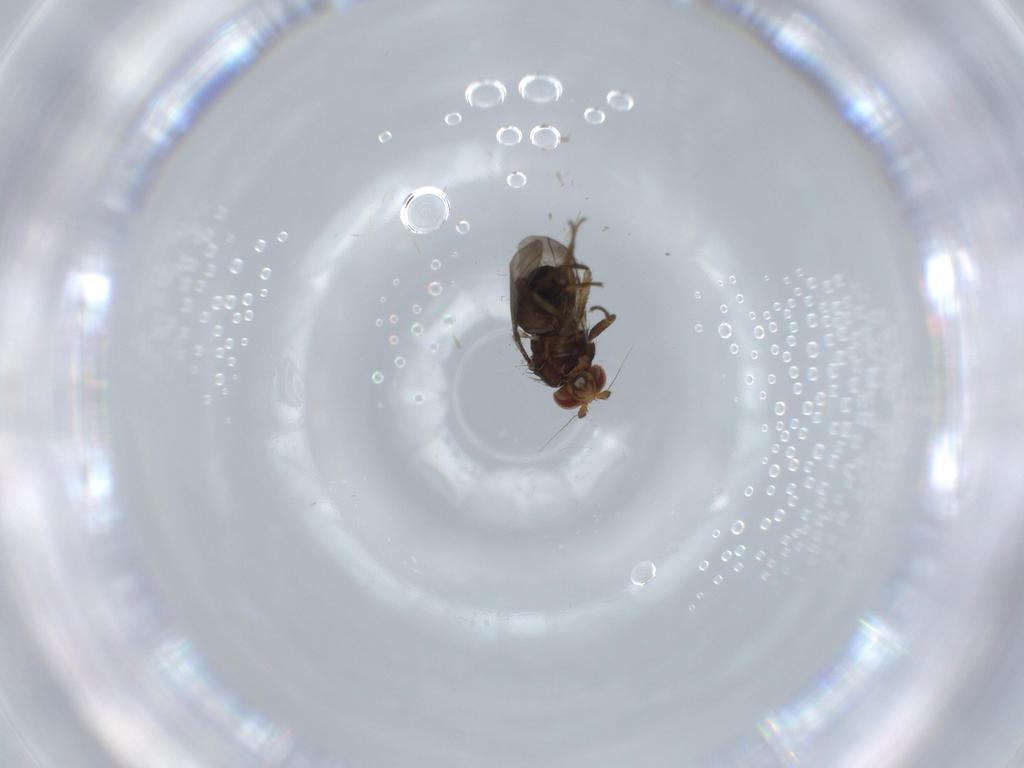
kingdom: Animalia
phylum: Arthropoda
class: Insecta
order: Diptera
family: Sphaeroceridae
